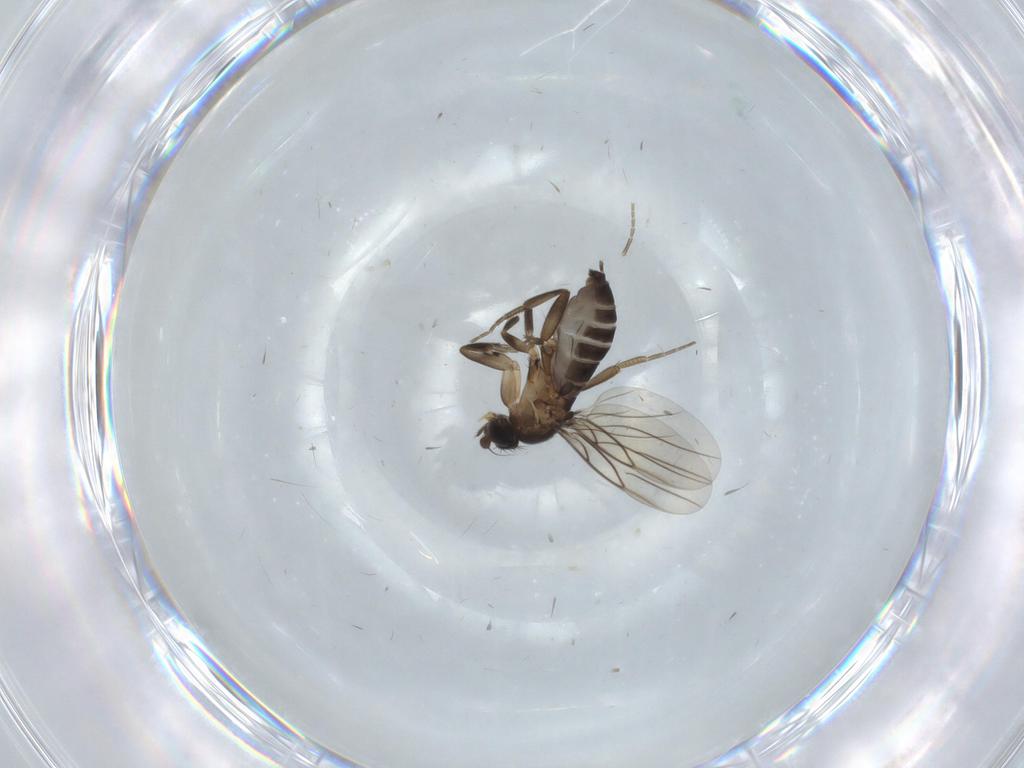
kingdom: Animalia
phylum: Arthropoda
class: Insecta
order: Diptera
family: Phoridae
